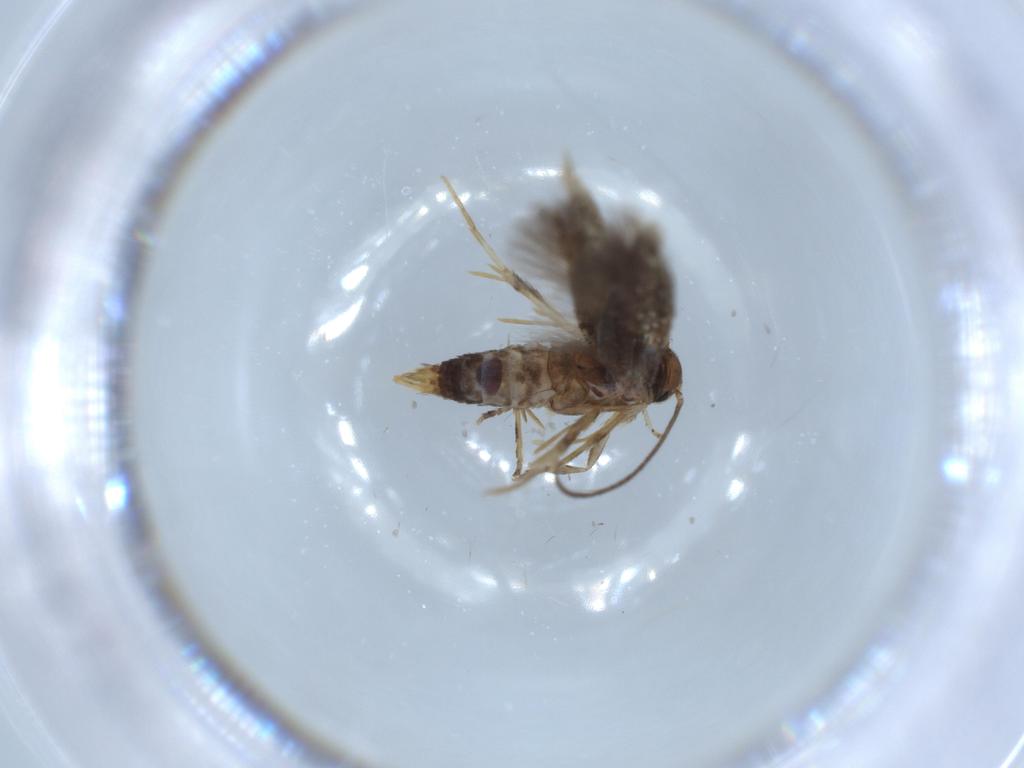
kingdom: Animalia
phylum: Arthropoda
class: Insecta
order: Lepidoptera
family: Elachistidae
